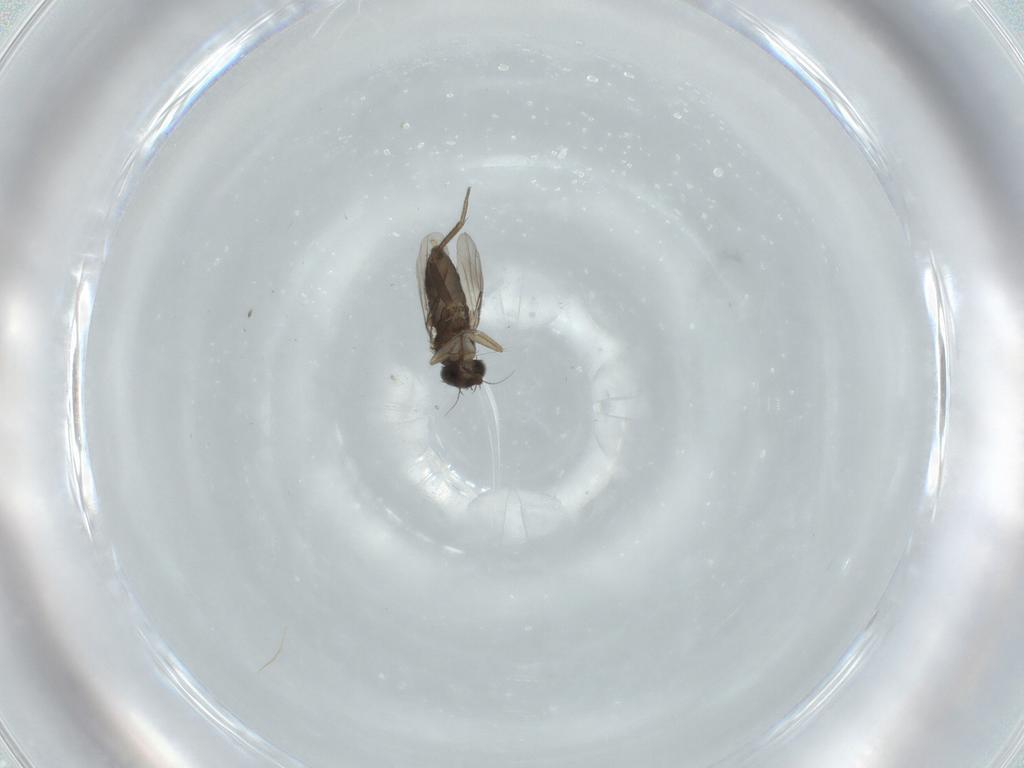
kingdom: Animalia
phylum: Arthropoda
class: Insecta
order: Diptera
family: Phoridae
